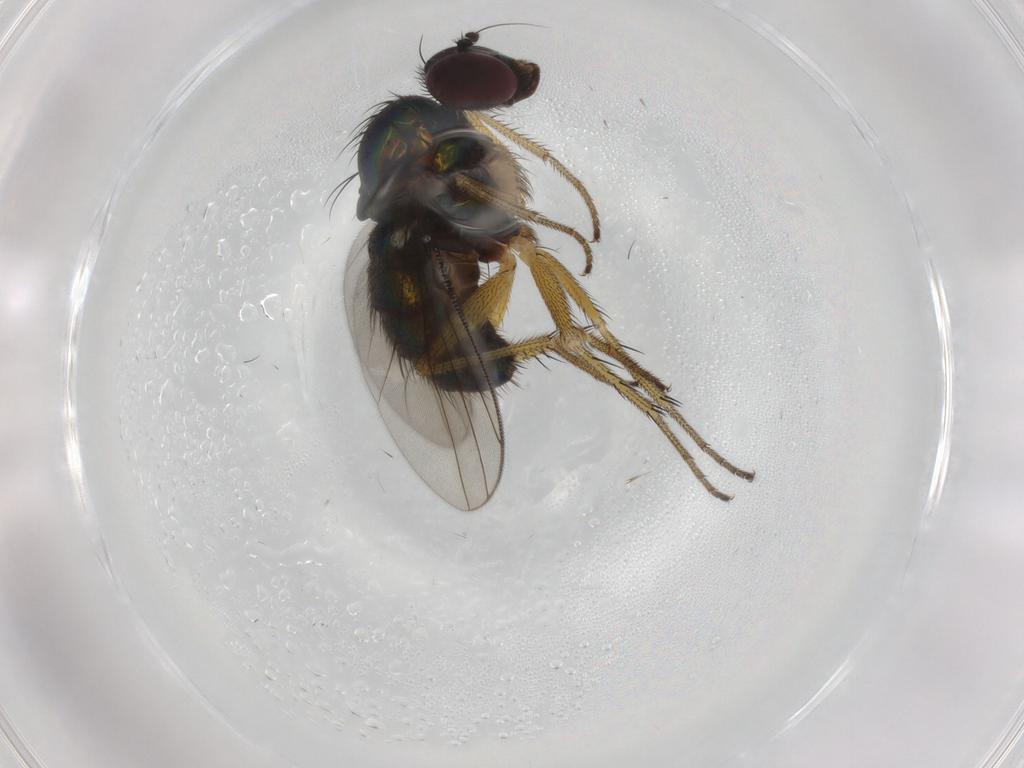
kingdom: Animalia
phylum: Arthropoda
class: Insecta
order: Diptera
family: Dolichopodidae
